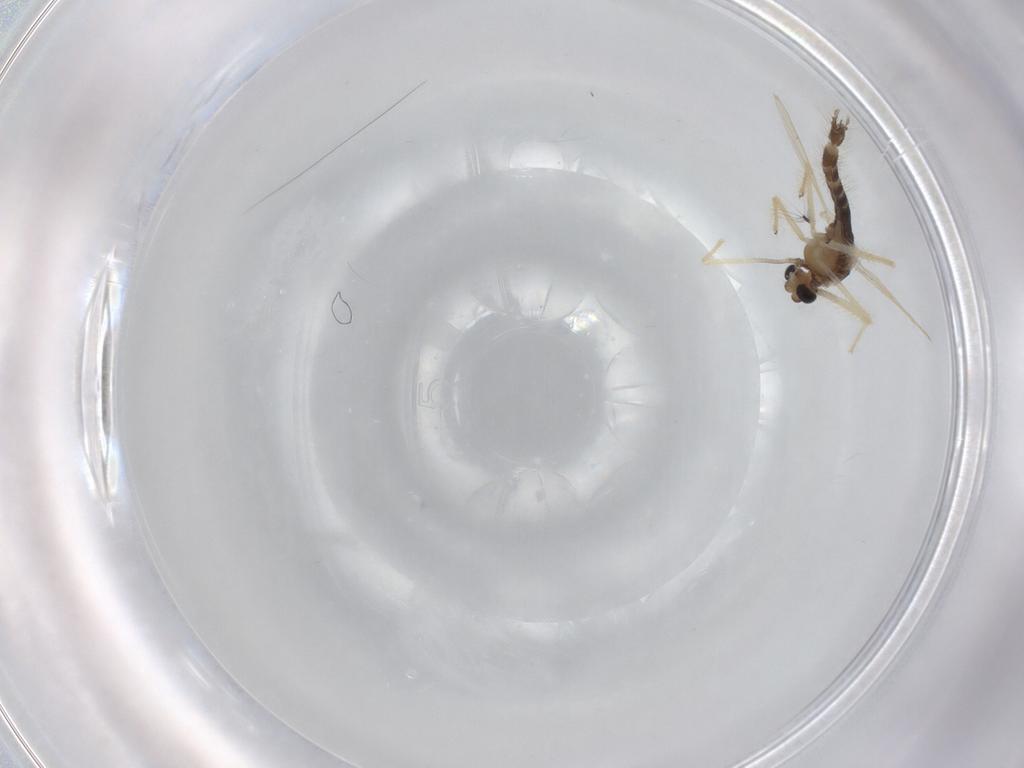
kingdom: Animalia
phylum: Arthropoda
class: Insecta
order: Diptera
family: Chironomidae
